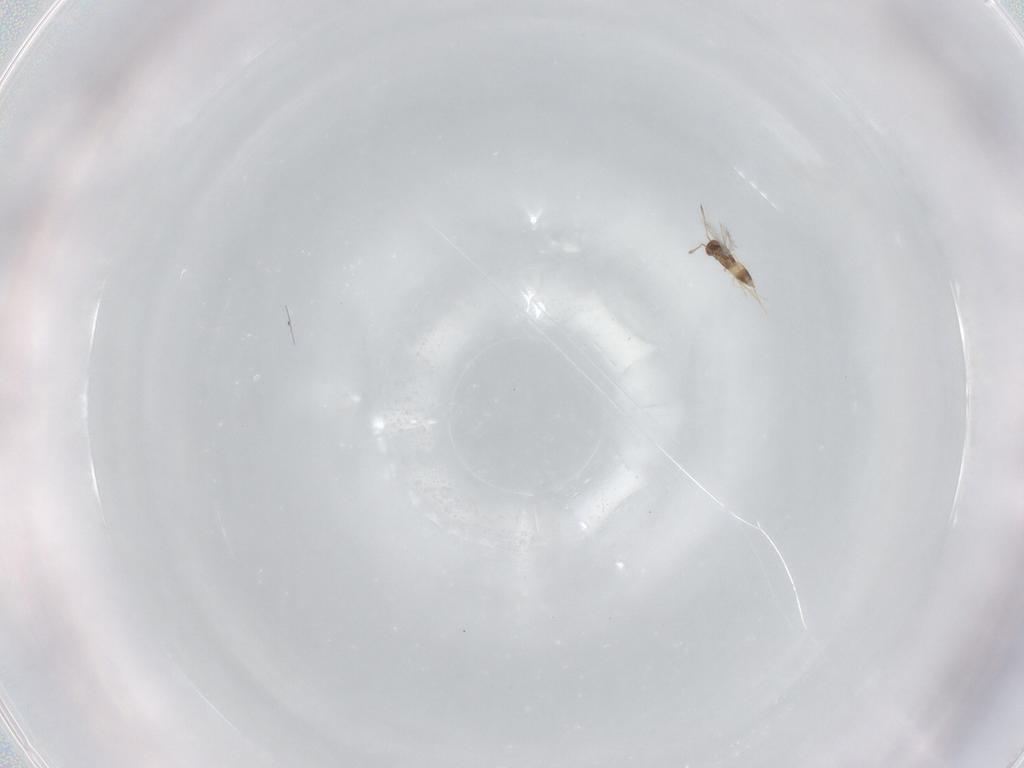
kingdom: Animalia
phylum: Arthropoda
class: Insecta
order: Hymenoptera
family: Mymaridae
